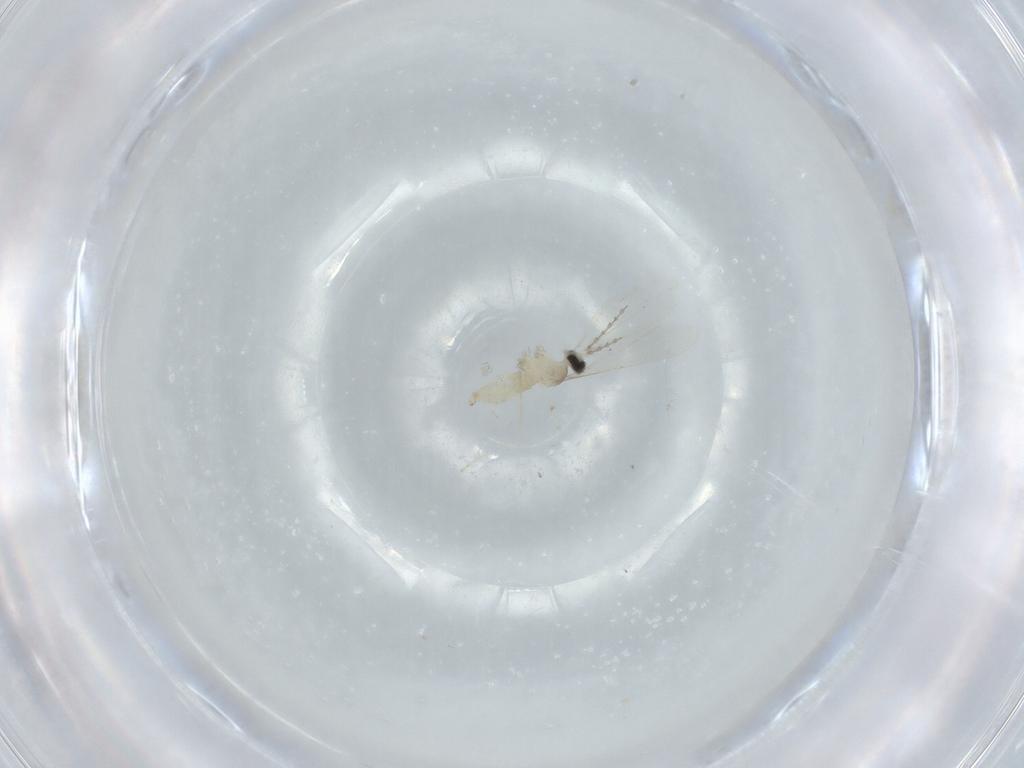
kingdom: Animalia
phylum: Arthropoda
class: Insecta
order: Diptera
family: Cecidomyiidae
